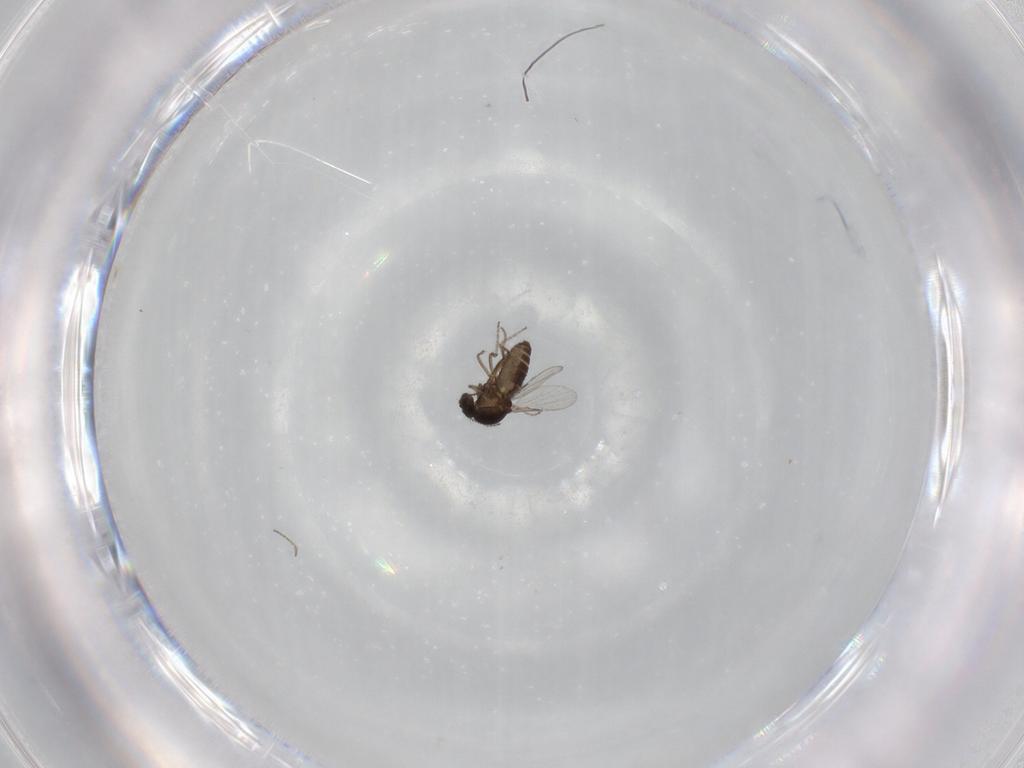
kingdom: Animalia
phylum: Arthropoda
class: Insecta
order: Diptera
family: Ceratopogonidae
